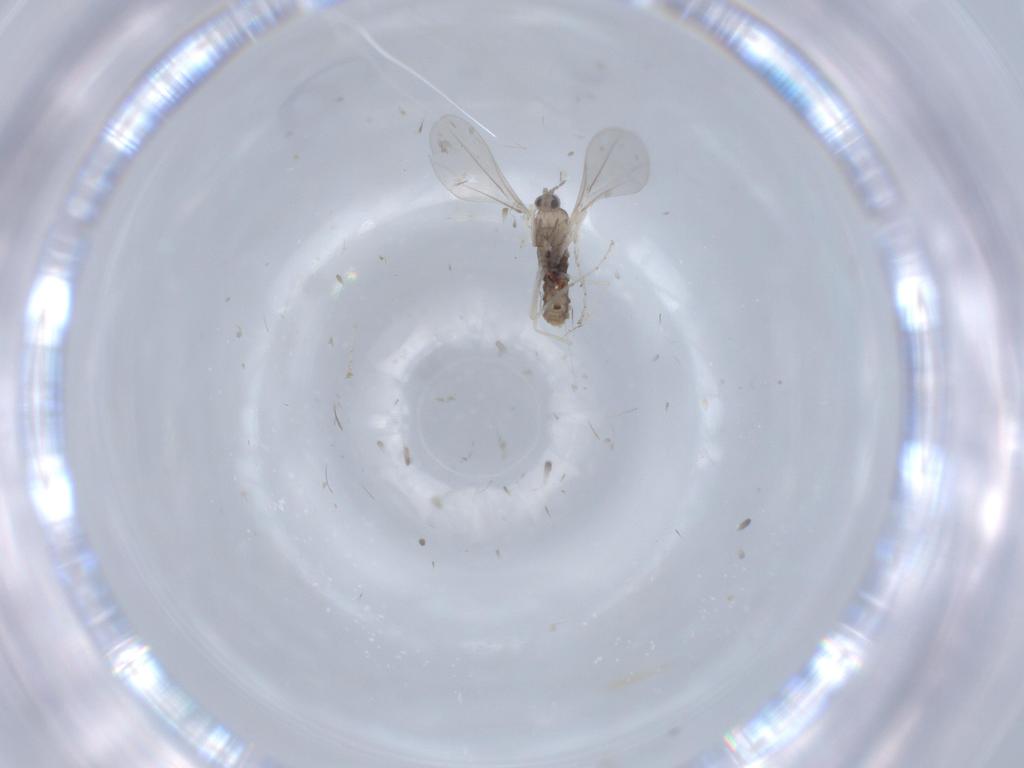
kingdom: Animalia
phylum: Arthropoda
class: Insecta
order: Diptera
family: Cecidomyiidae
